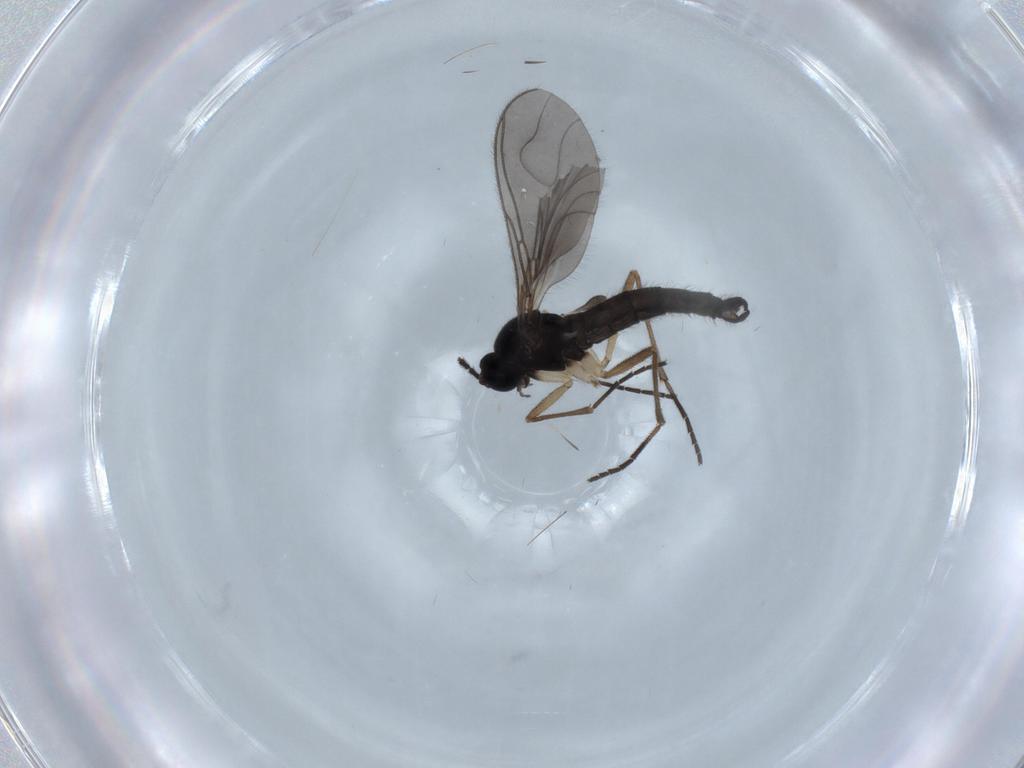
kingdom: Animalia
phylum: Arthropoda
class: Insecta
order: Diptera
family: Sciaridae
